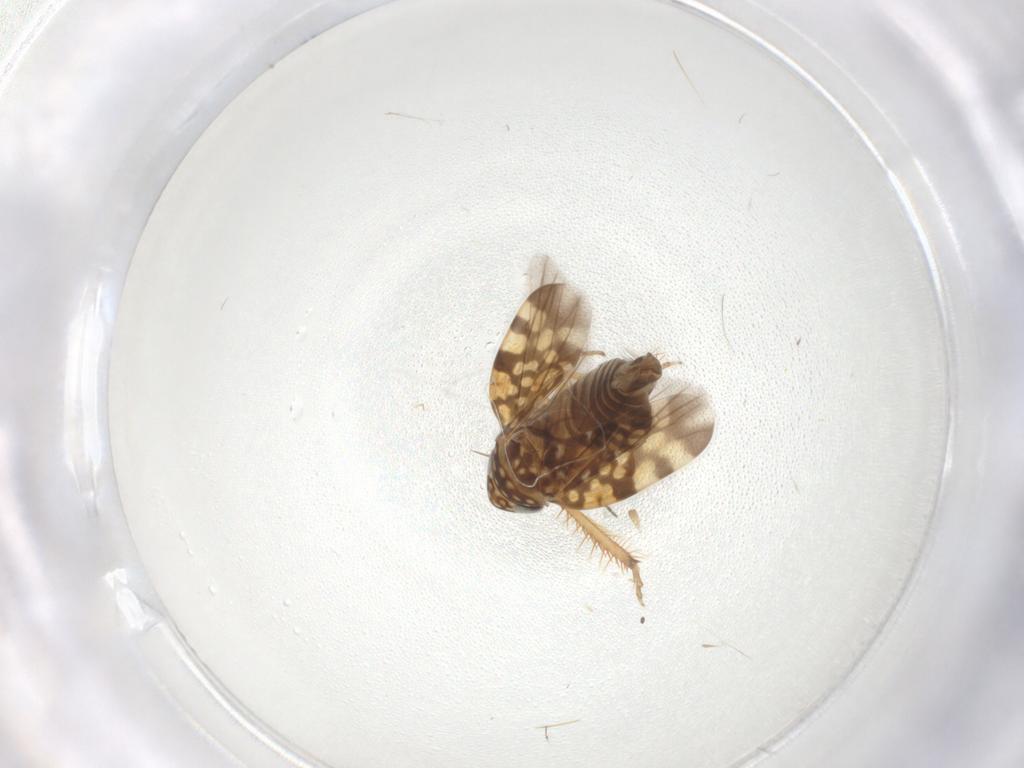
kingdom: Animalia
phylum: Arthropoda
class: Insecta
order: Hemiptera
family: Cicadellidae
